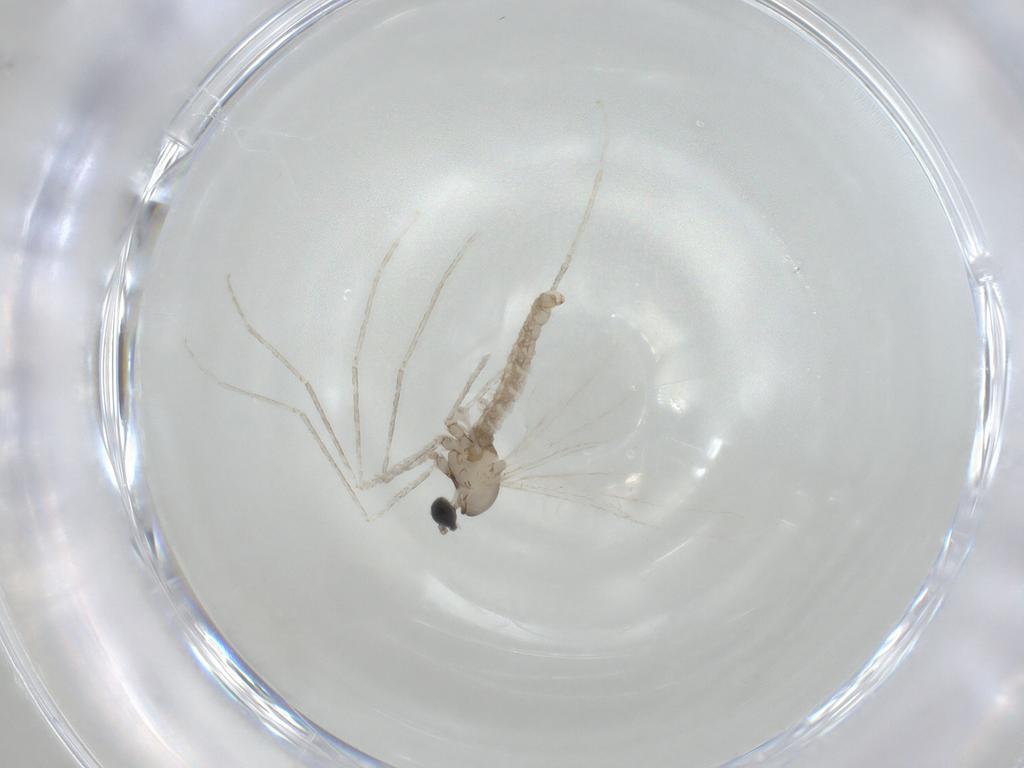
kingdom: Animalia
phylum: Arthropoda
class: Insecta
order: Diptera
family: Cecidomyiidae
